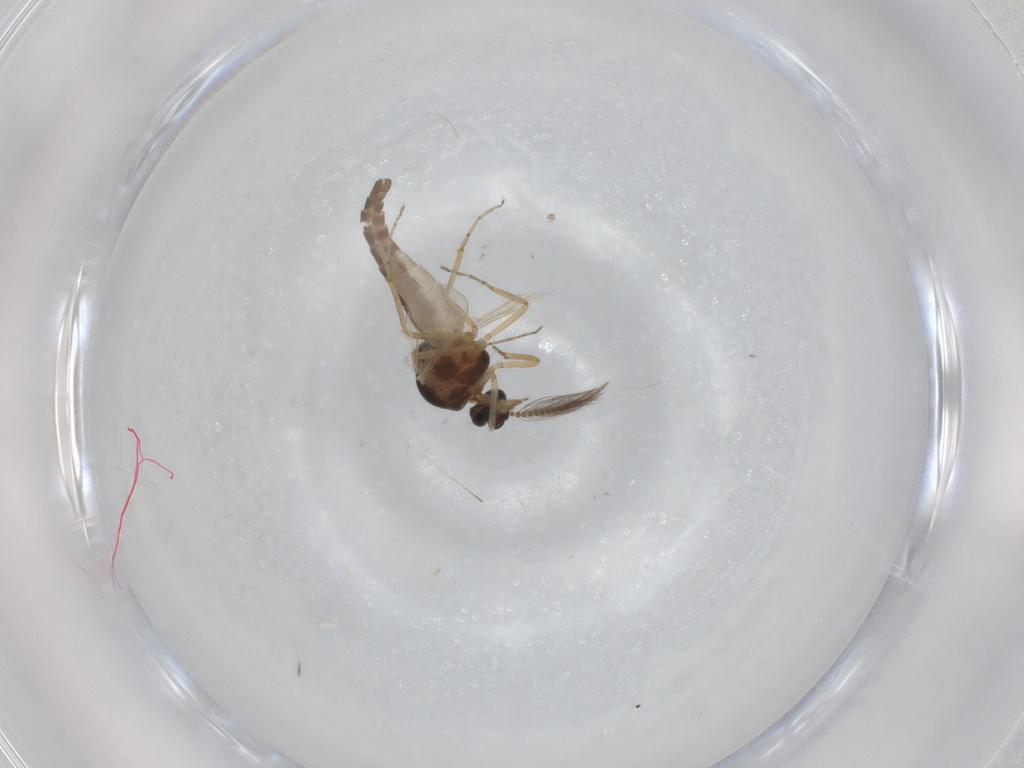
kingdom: Animalia
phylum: Arthropoda
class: Insecta
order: Diptera
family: Ceratopogonidae
